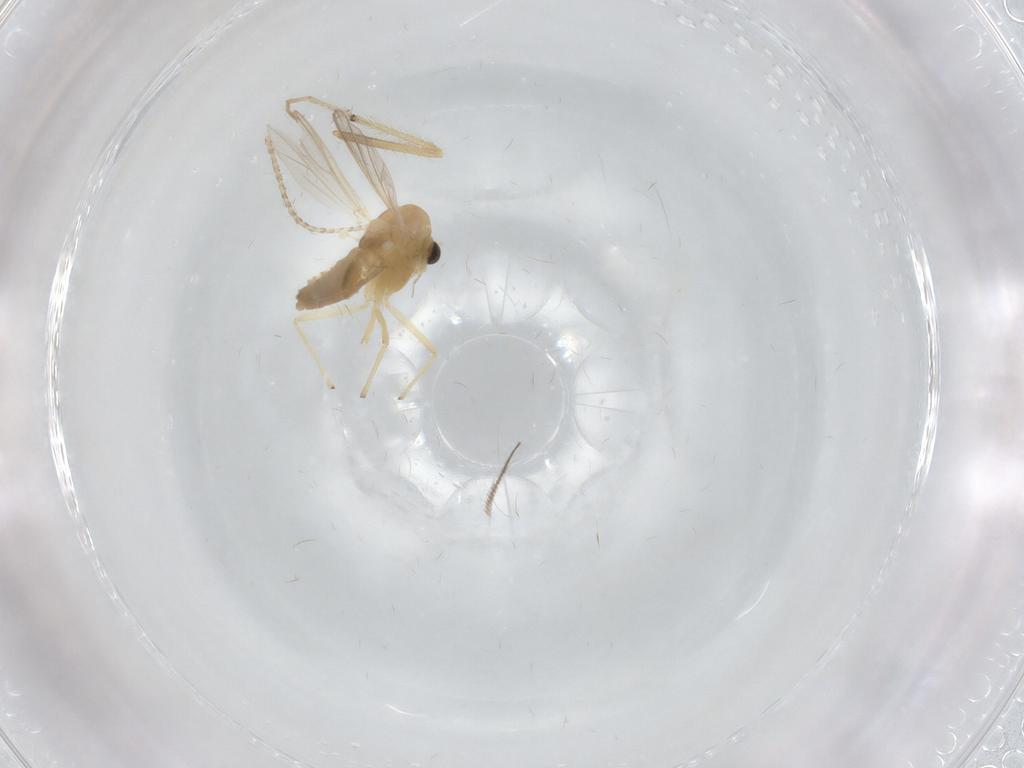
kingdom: Animalia
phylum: Arthropoda
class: Insecta
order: Diptera
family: Chironomidae
